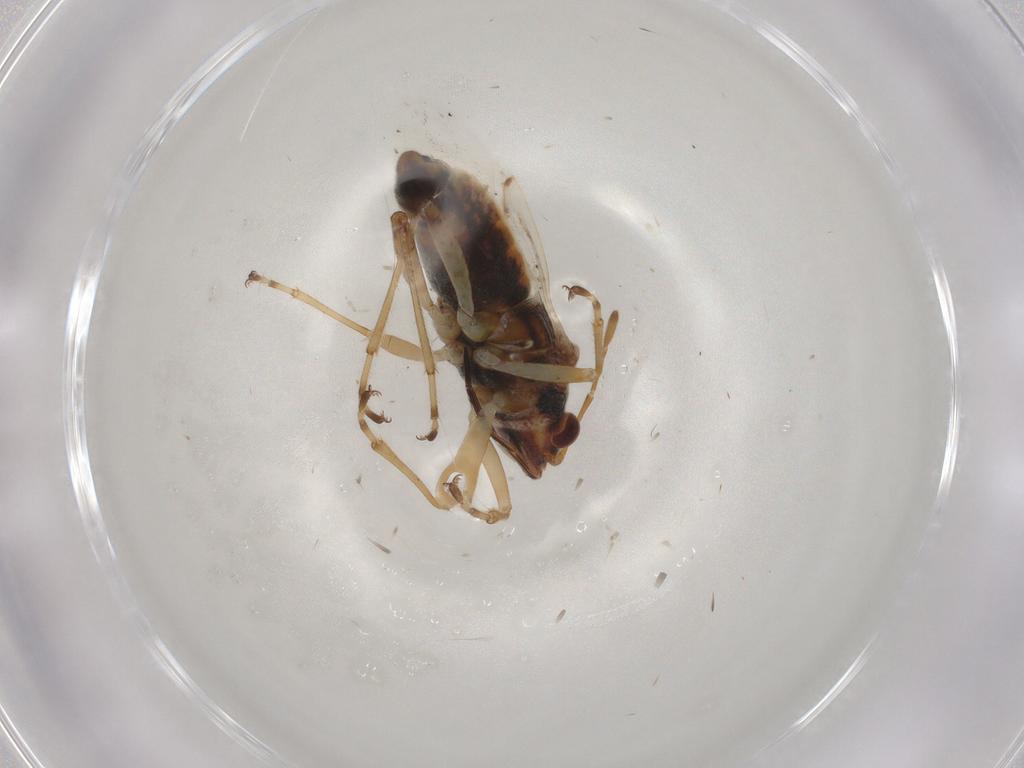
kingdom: Animalia
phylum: Arthropoda
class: Insecta
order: Hemiptera
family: Lygaeidae
